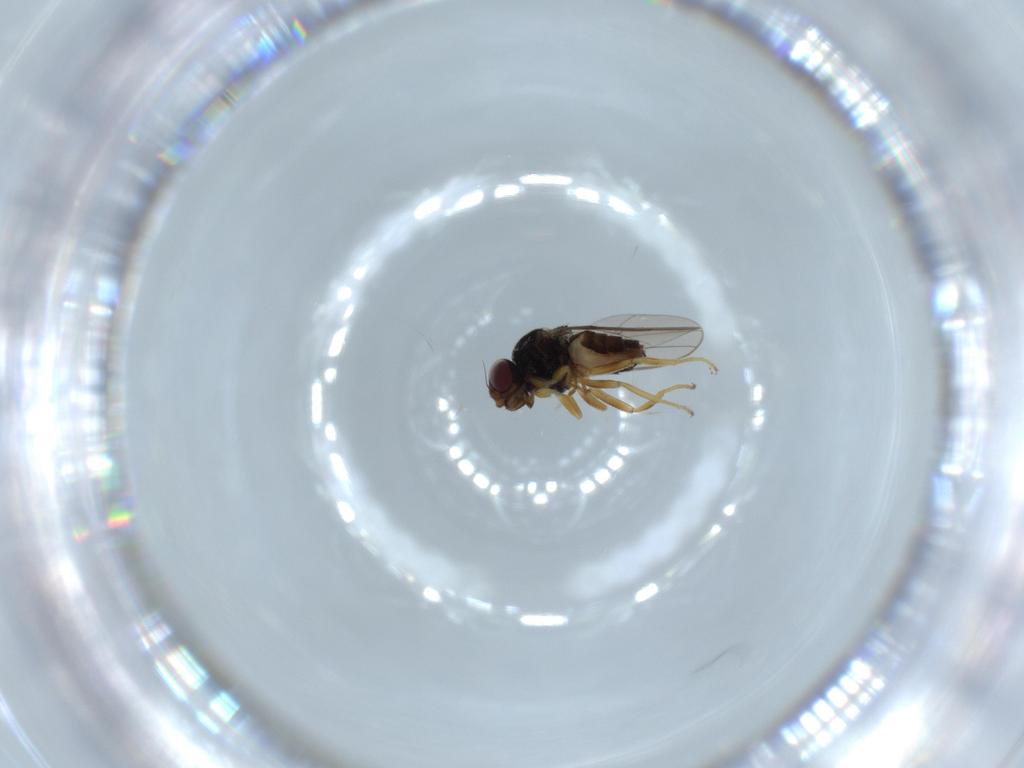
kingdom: Animalia
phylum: Arthropoda
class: Insecta
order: Diptera
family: Chloropidae
